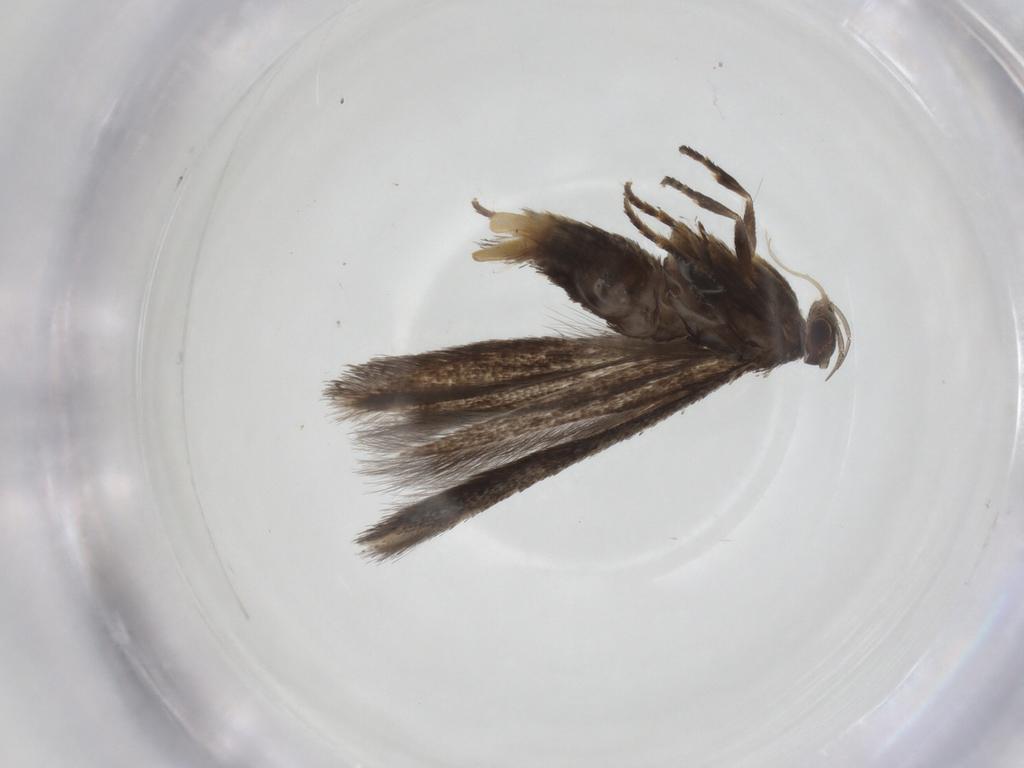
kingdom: Animalia
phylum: Arthropoda
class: Insecta
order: Lepidoptera
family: Elachistidae
